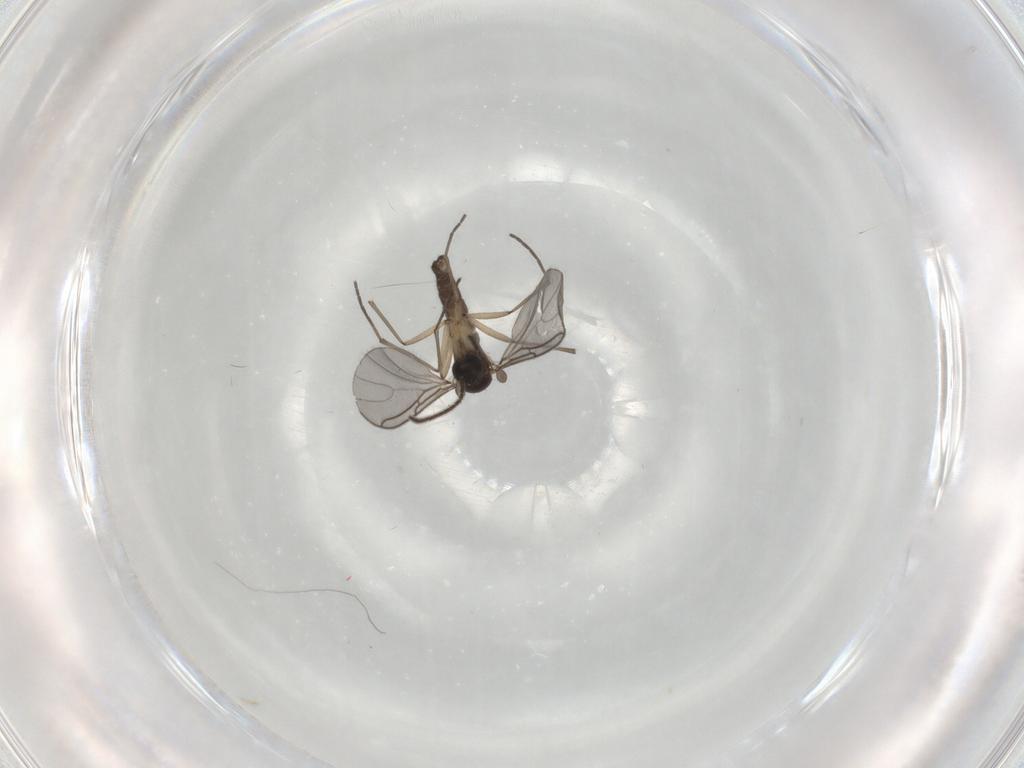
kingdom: Animalia
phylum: Arthropoda
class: Insecta
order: Diptera
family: Sciaridae
